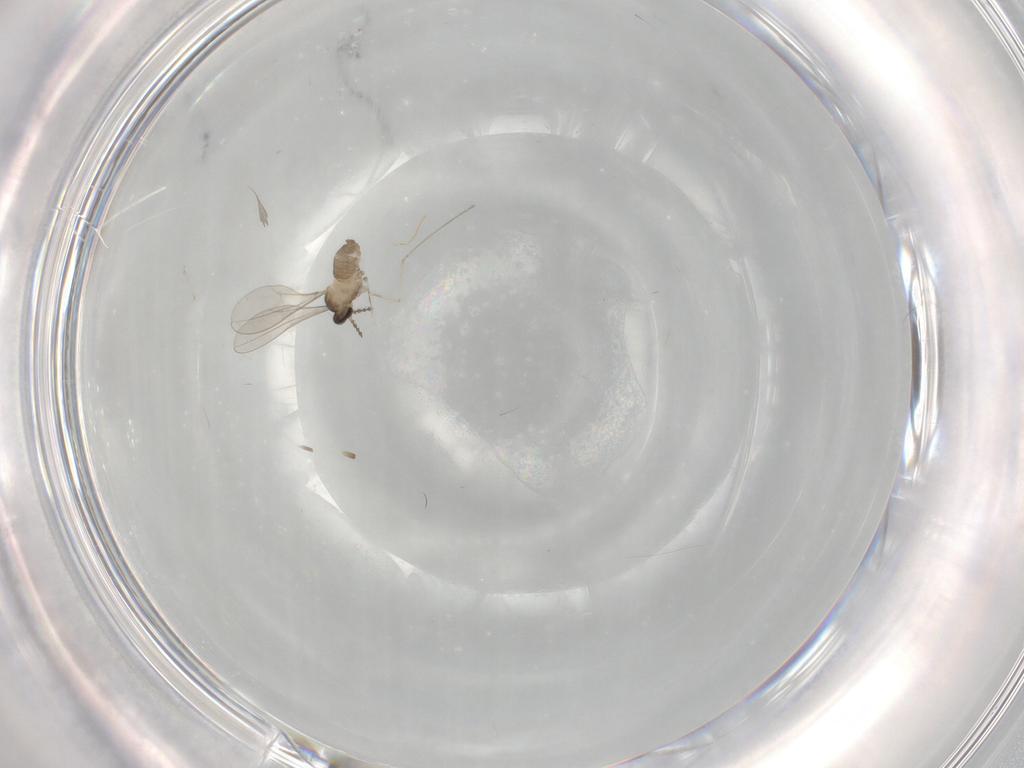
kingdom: Animalia
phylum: Arthropoda
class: Insecta
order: Diptera
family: Cecidomyiidae
